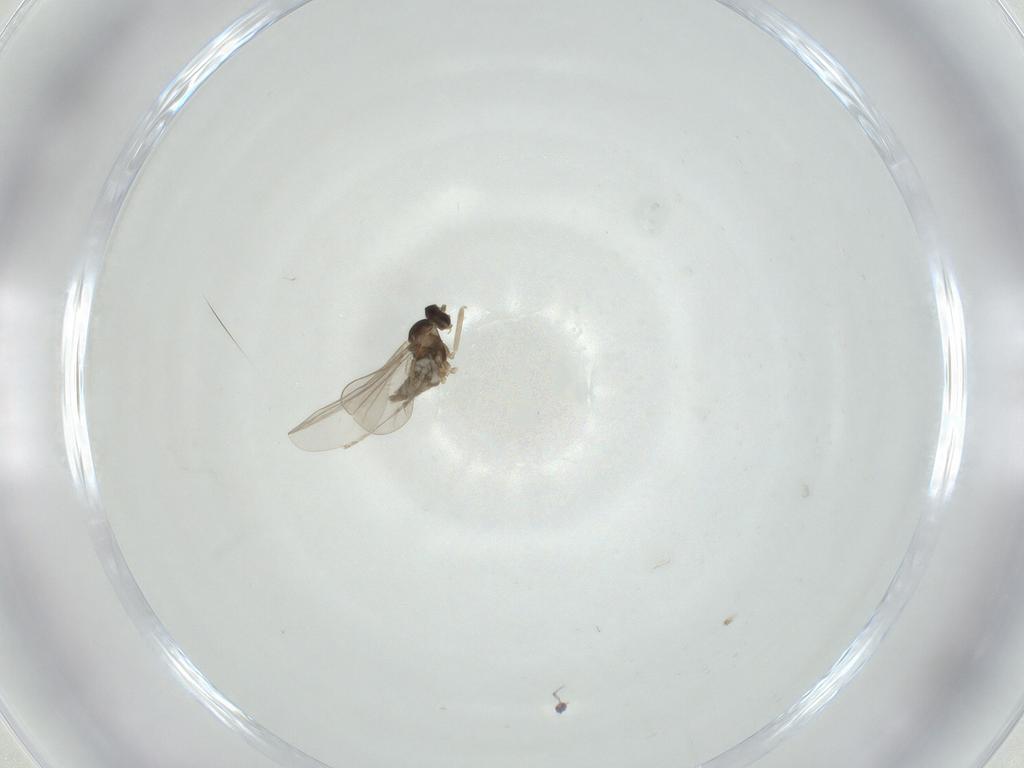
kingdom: Animalia
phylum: Arthropoda
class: Insecta
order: Diptera
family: Cecidomyiidae
